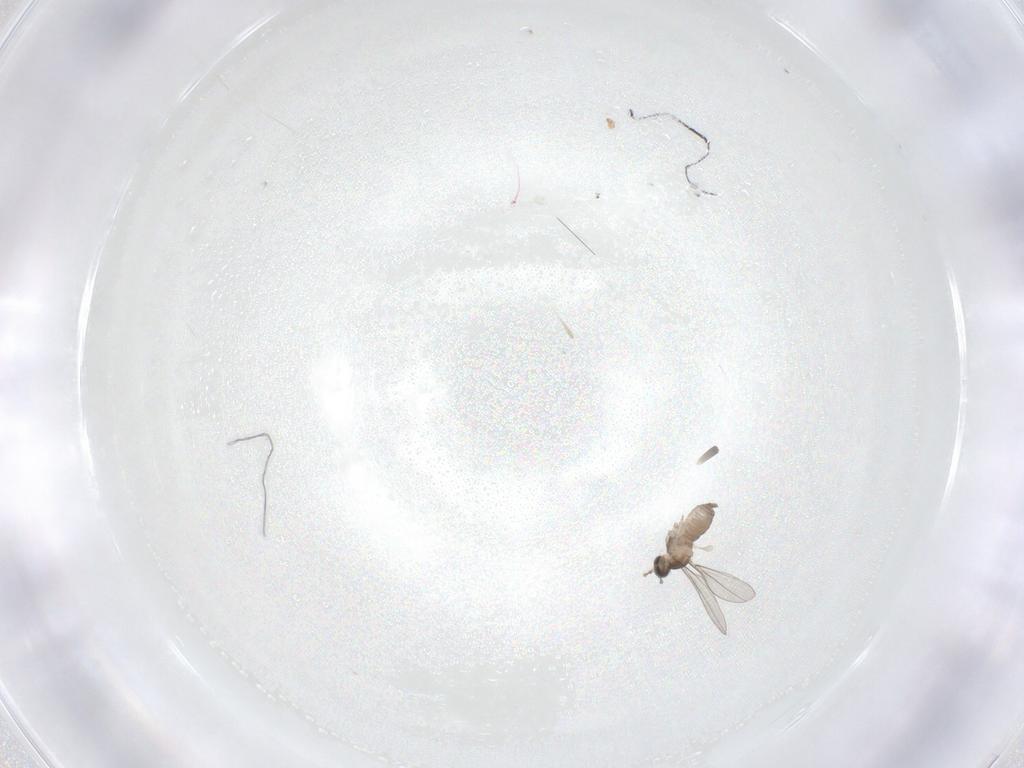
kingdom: Animalia
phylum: Arthropoda
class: Insecta
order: Diptera
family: Cecidomyiidae
